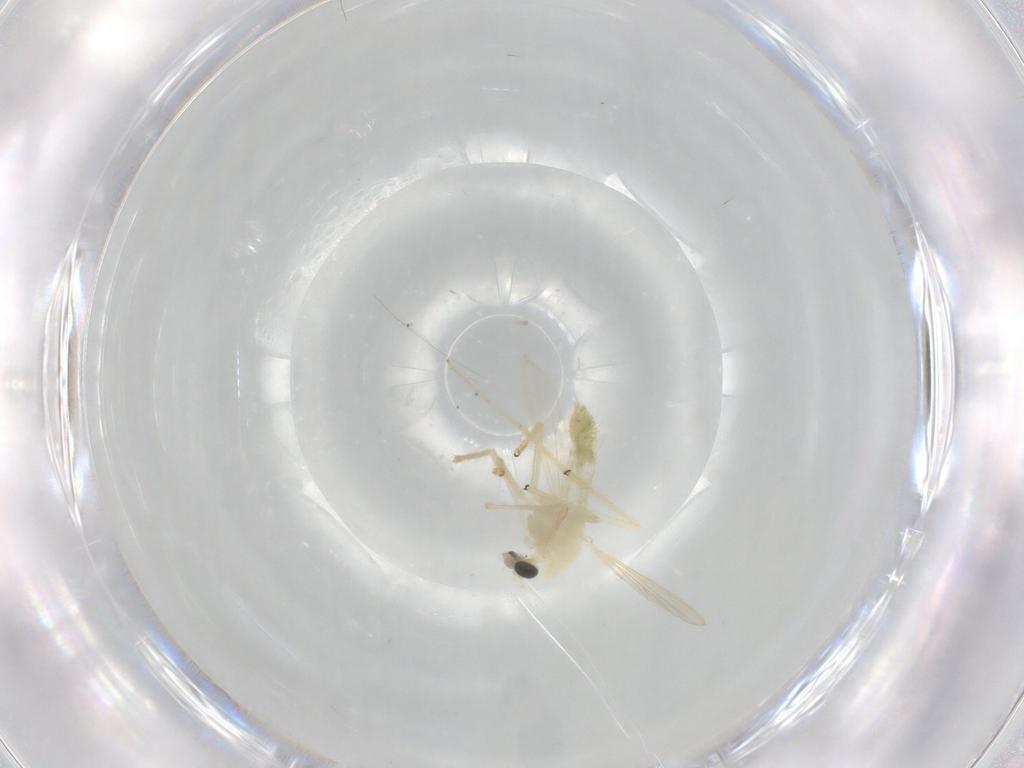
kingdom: Animalia
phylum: Arthropoda
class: Insecta
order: Diptera
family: Chironomidae
